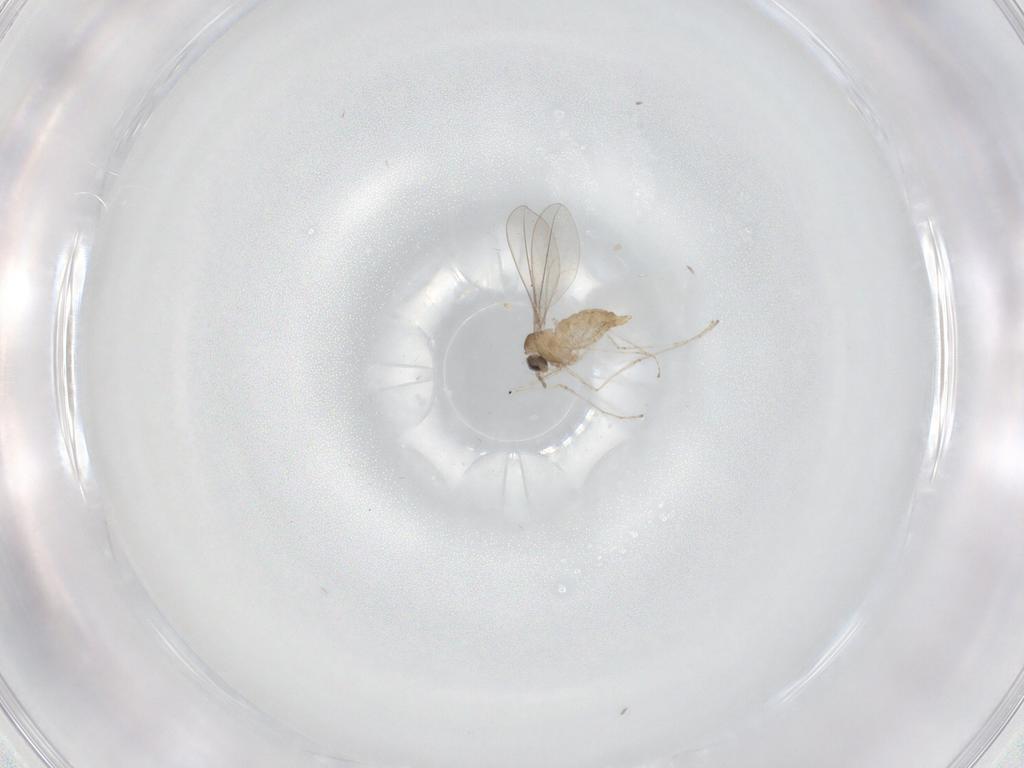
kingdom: Animalia
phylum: Arthropoda
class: Insecta
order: Diptera
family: Cecidomyiidae
